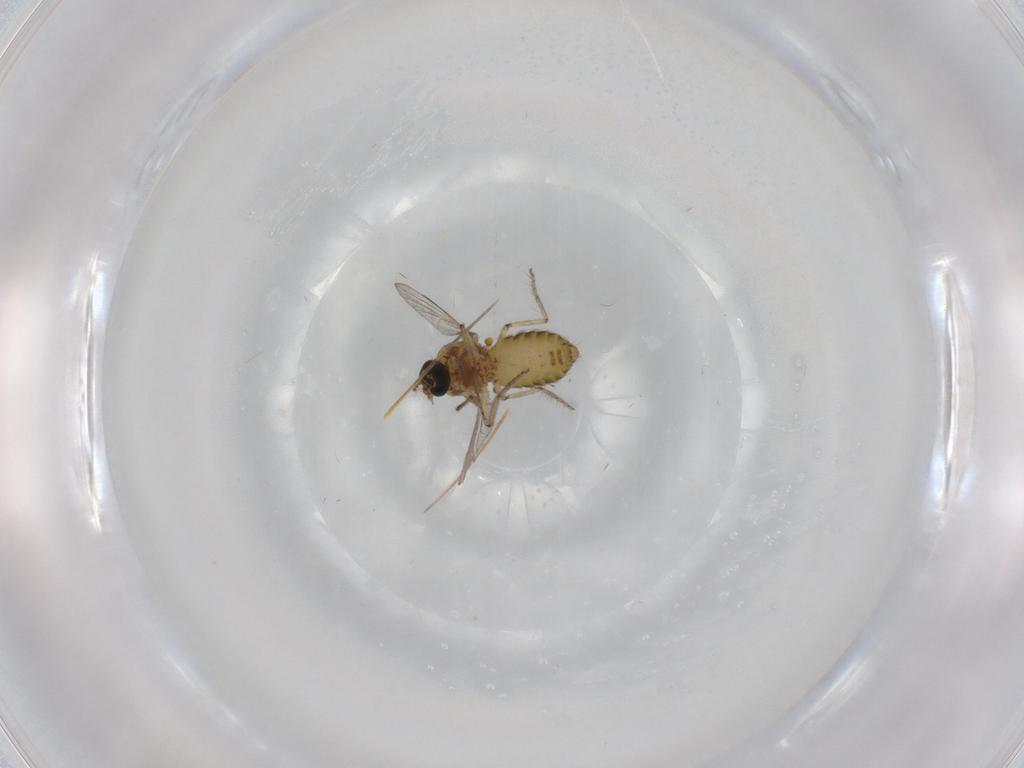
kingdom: Animalia
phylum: Arthropoda
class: Insecta
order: Diptera
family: Ceratopogonidae
